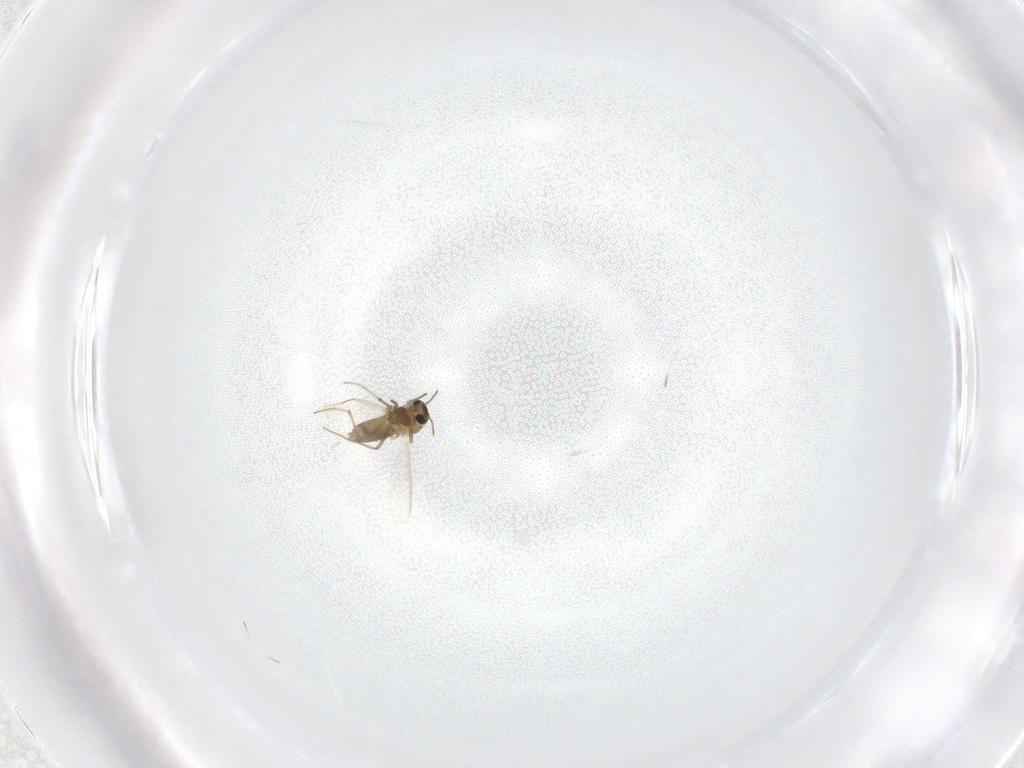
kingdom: Animalia
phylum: Arthropoda
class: Insecta
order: Diptera
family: Chironomidae
